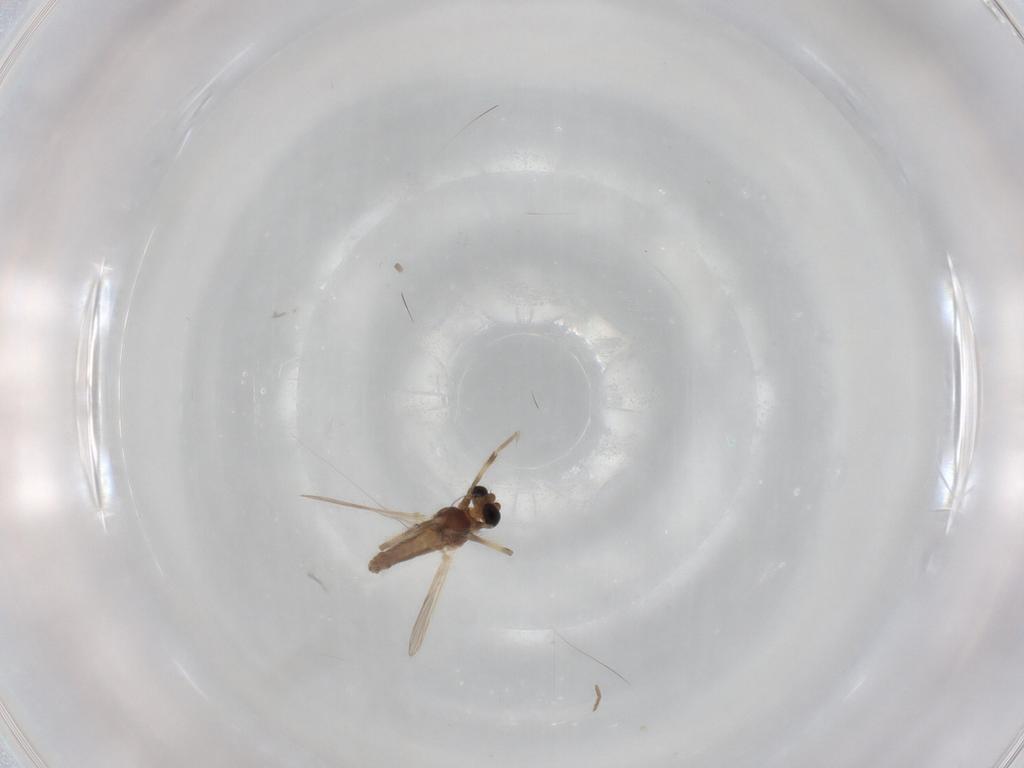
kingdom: Animalia
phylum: Arthropoda
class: Insecta
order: Diptera
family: Chironomidae
